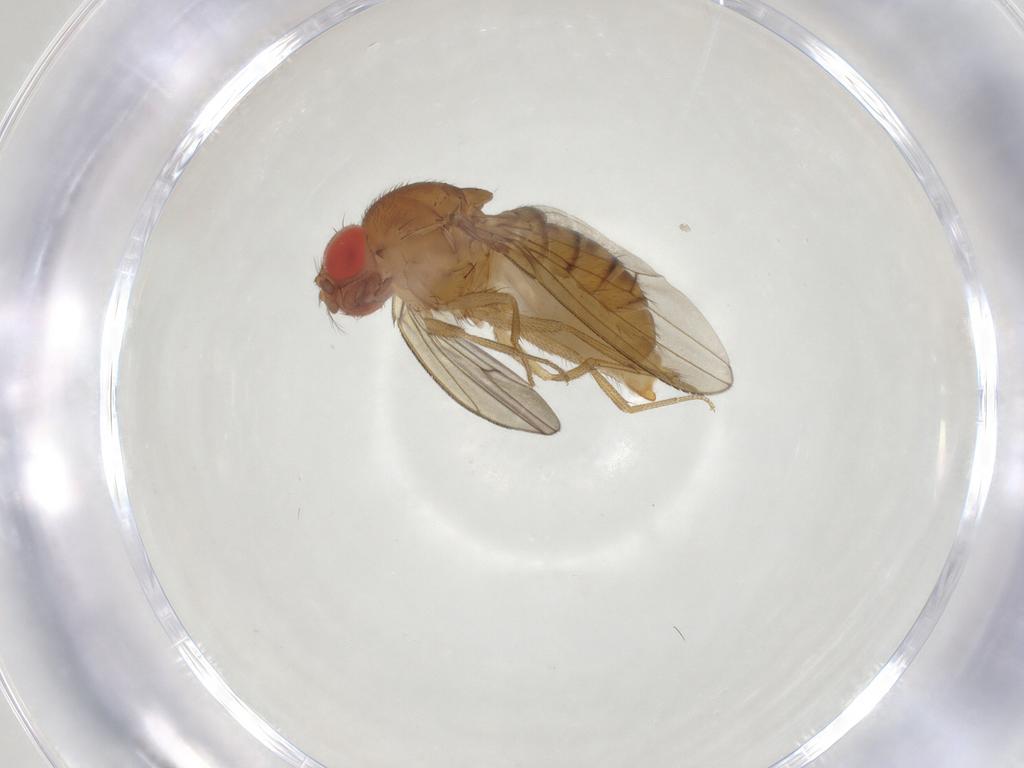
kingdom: Animalia
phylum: Arthropoda
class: Insecta
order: Diptera
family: Drosophilidae
